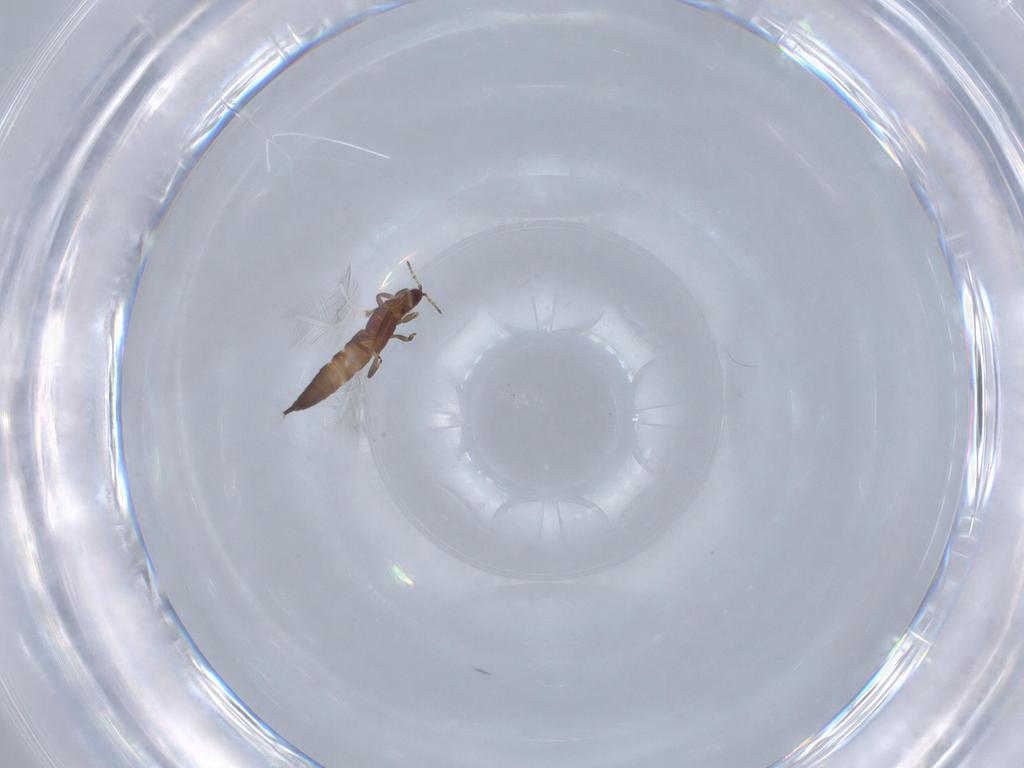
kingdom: Animalia
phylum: Arthropoda
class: Insecta
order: Thysanoptera
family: Phlaeothripidae
